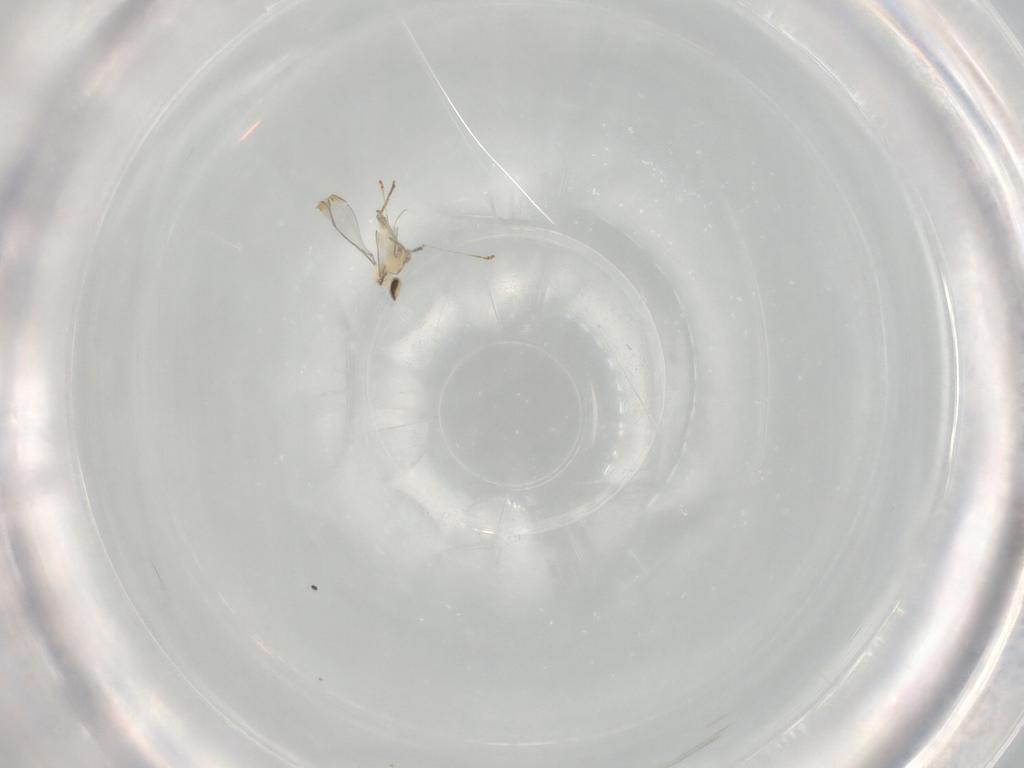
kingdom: Animalia
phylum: Arthropoda
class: Insecta
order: Diptera
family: Cecidomyiidae
